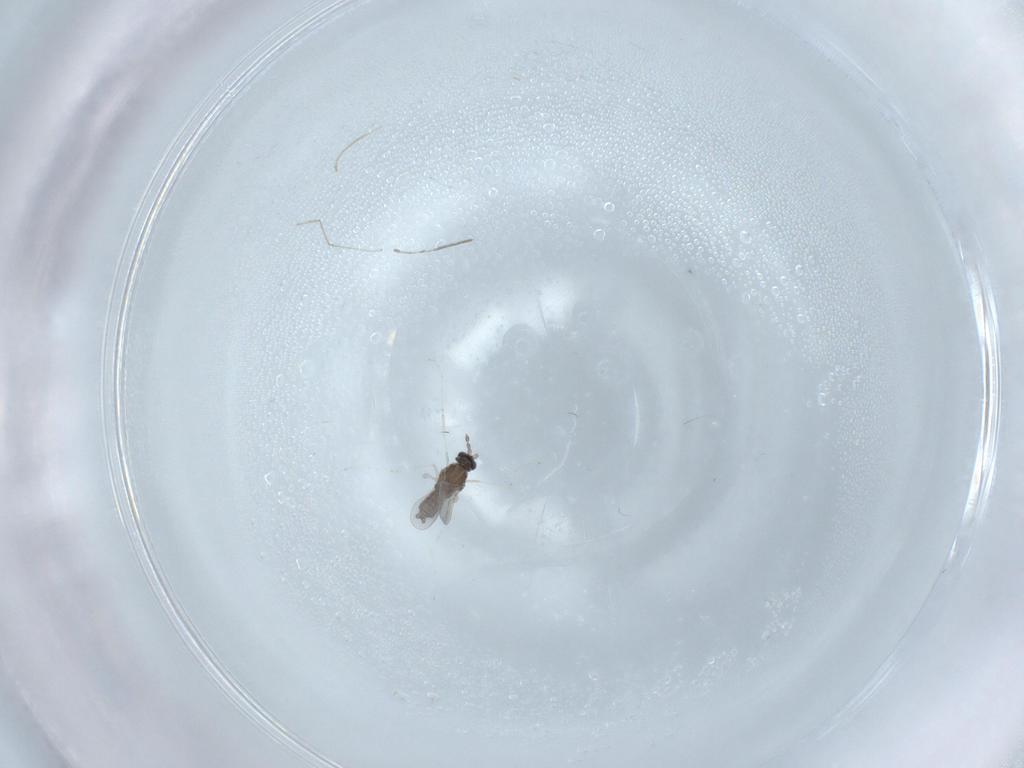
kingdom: Animalia
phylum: Arthropoda
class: Insecta
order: Diptera
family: Cecidomyiidae
